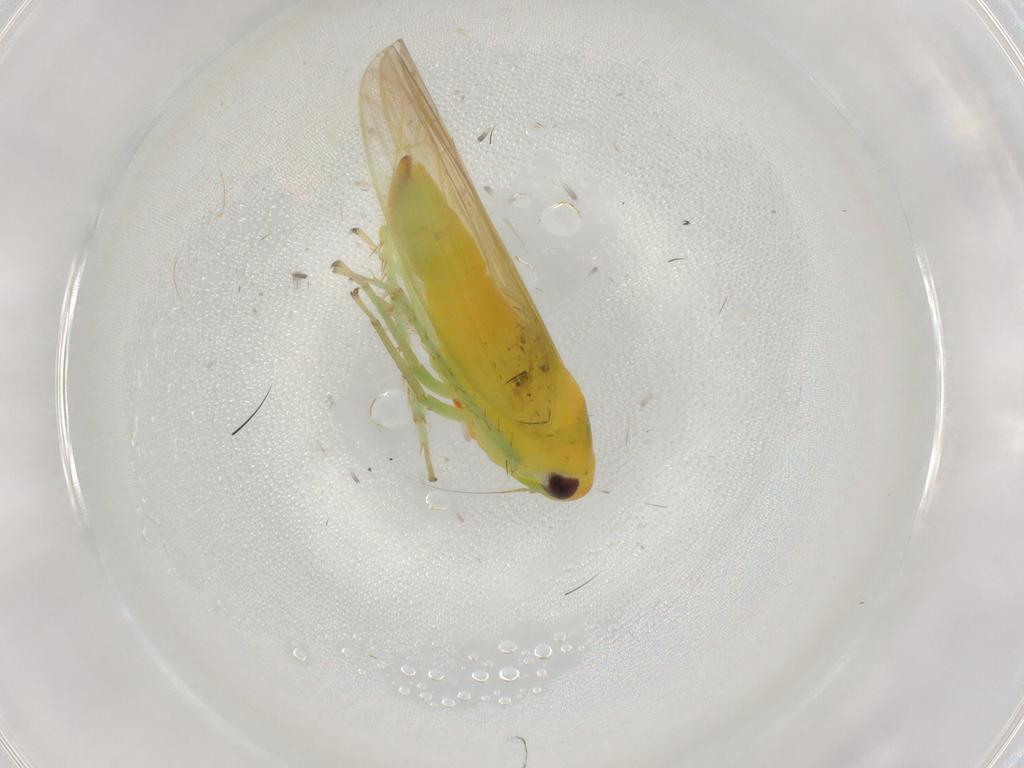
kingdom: Animalia
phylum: Arthropoda
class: Insecta
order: Hemiptera
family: Cicadellidae
